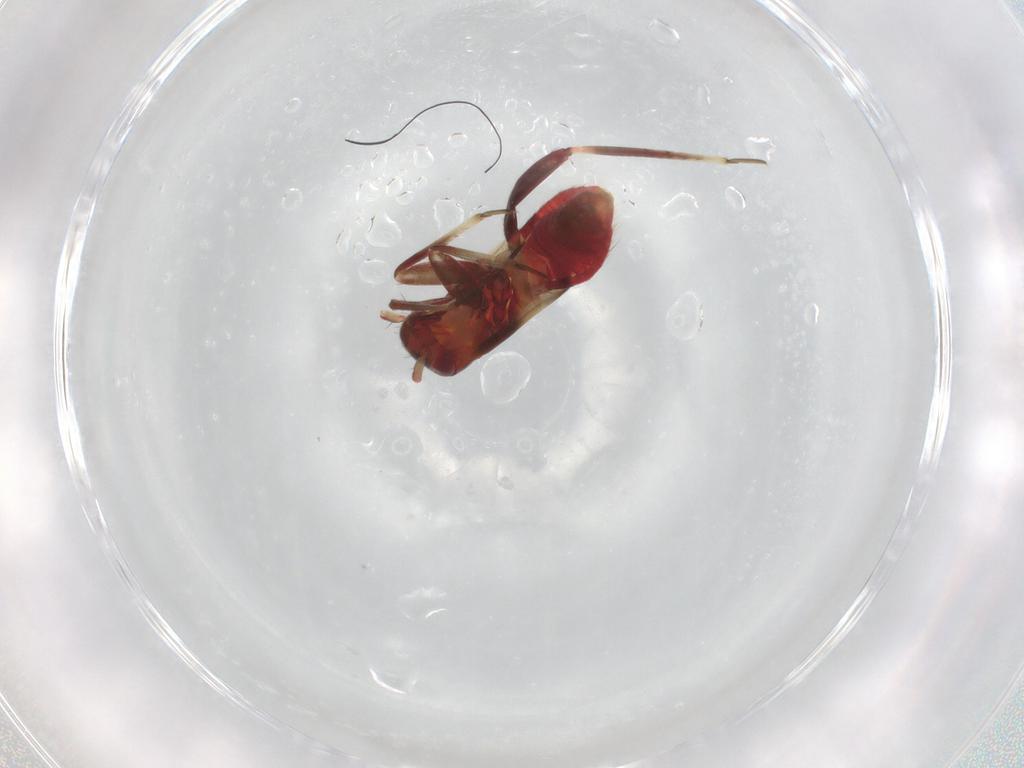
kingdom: Animalia
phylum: Arthropoda
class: Insecta
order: Hemiptera
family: Miridae
